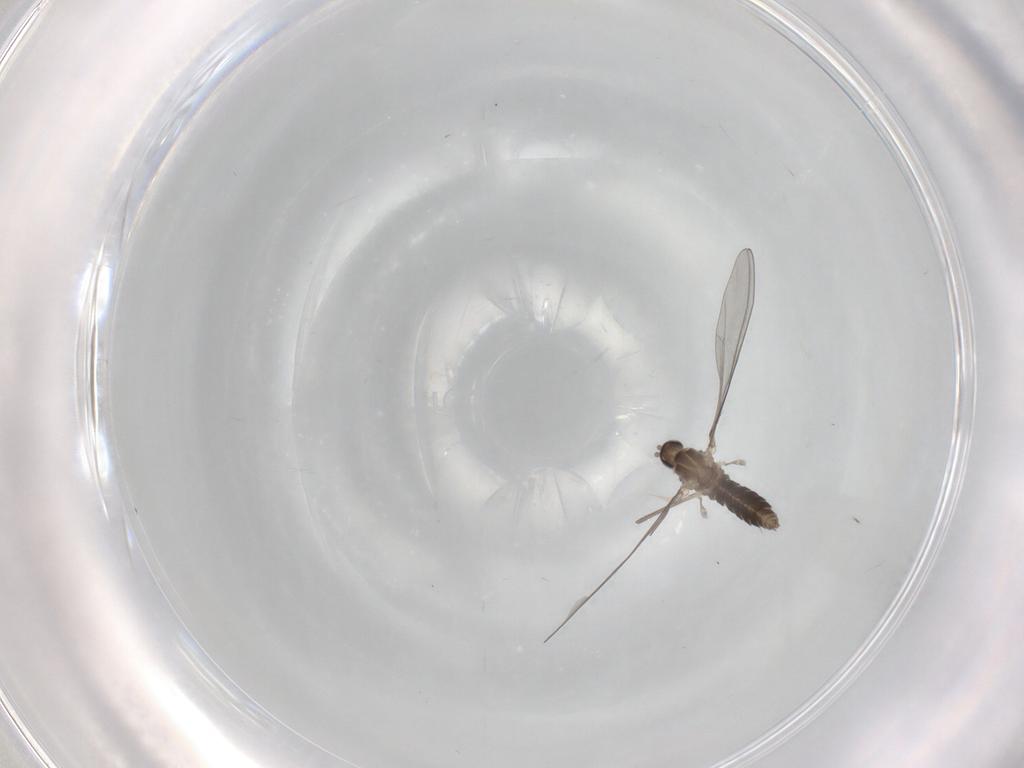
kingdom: Animalia
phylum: Arthropoda
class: Insecta
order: Diptera
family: Cecidomyiidae
